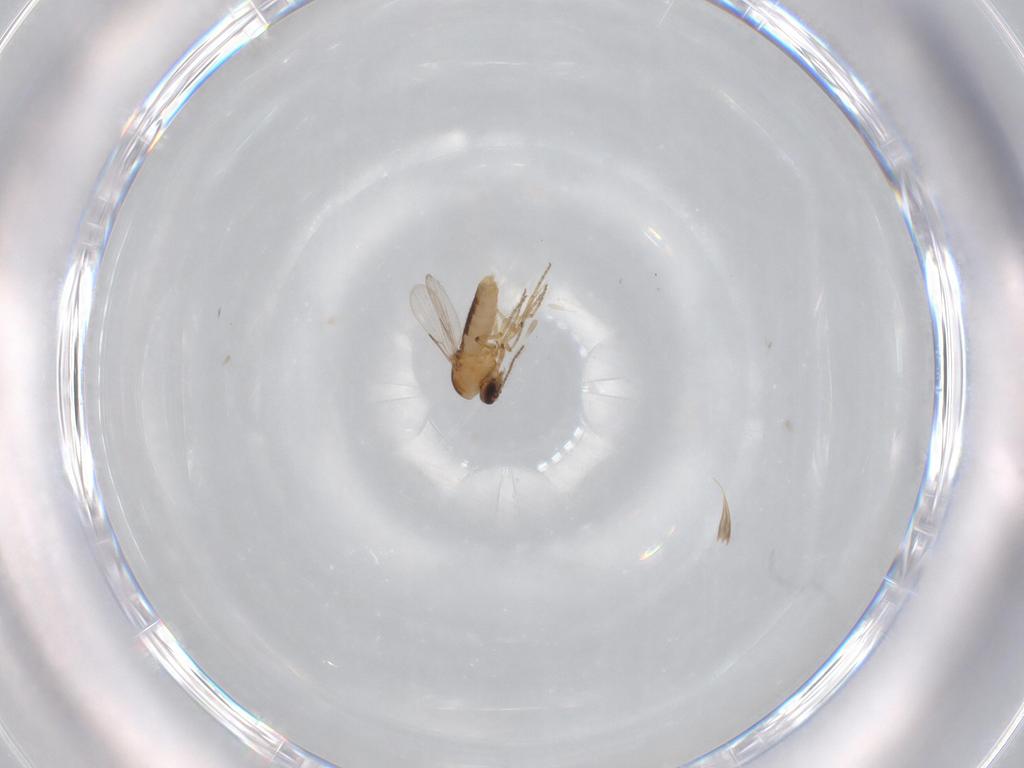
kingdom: Animalia
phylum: Arthropoda
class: Insecta
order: Diptera
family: Ceratopogonidae
